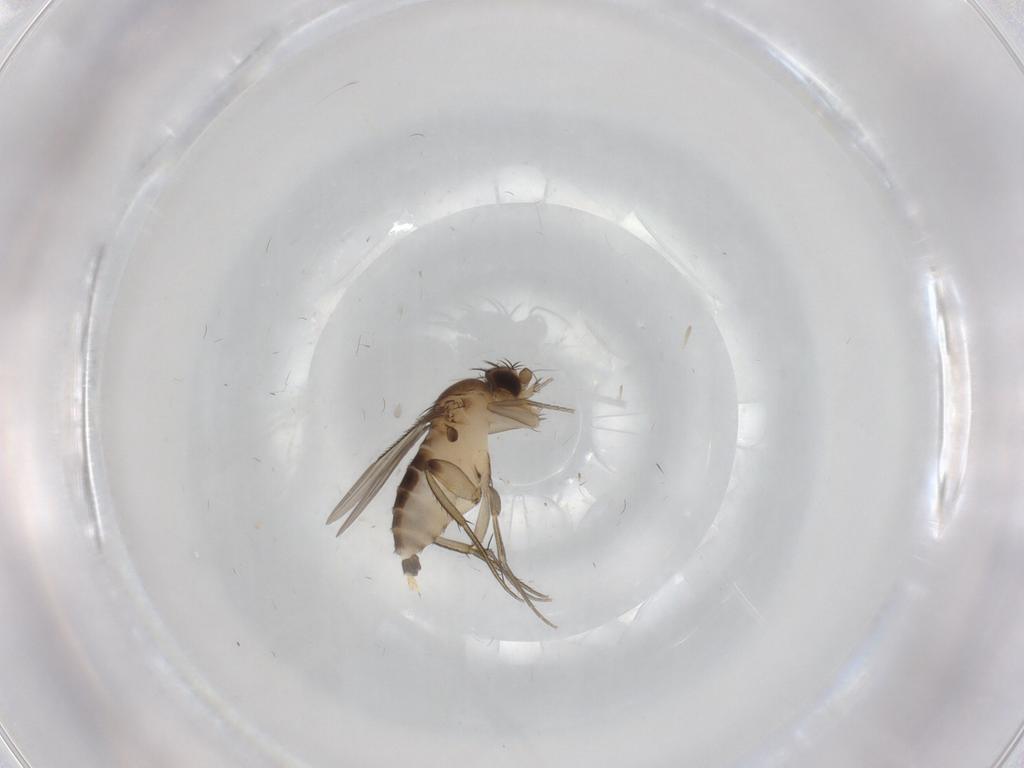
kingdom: Animalia
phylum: Arthropoda
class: Insecta
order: Diptera
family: Phoridae
